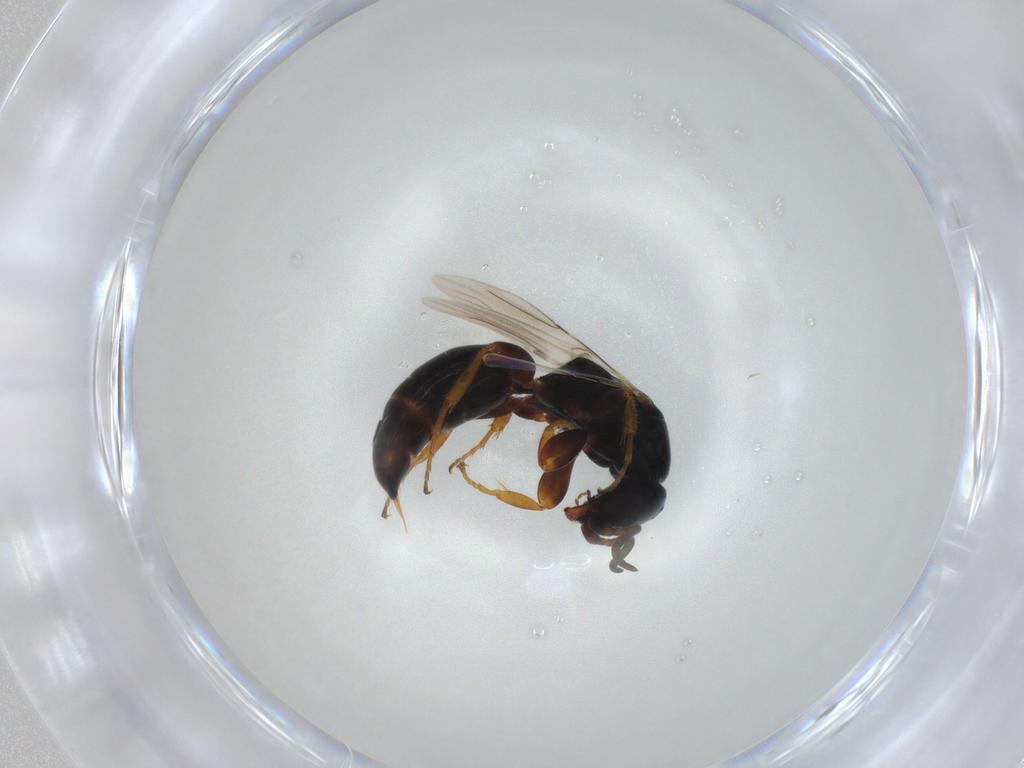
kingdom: Animalia
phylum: Arthropoda
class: Insecta
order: Hymenoptera
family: Bethylidae
